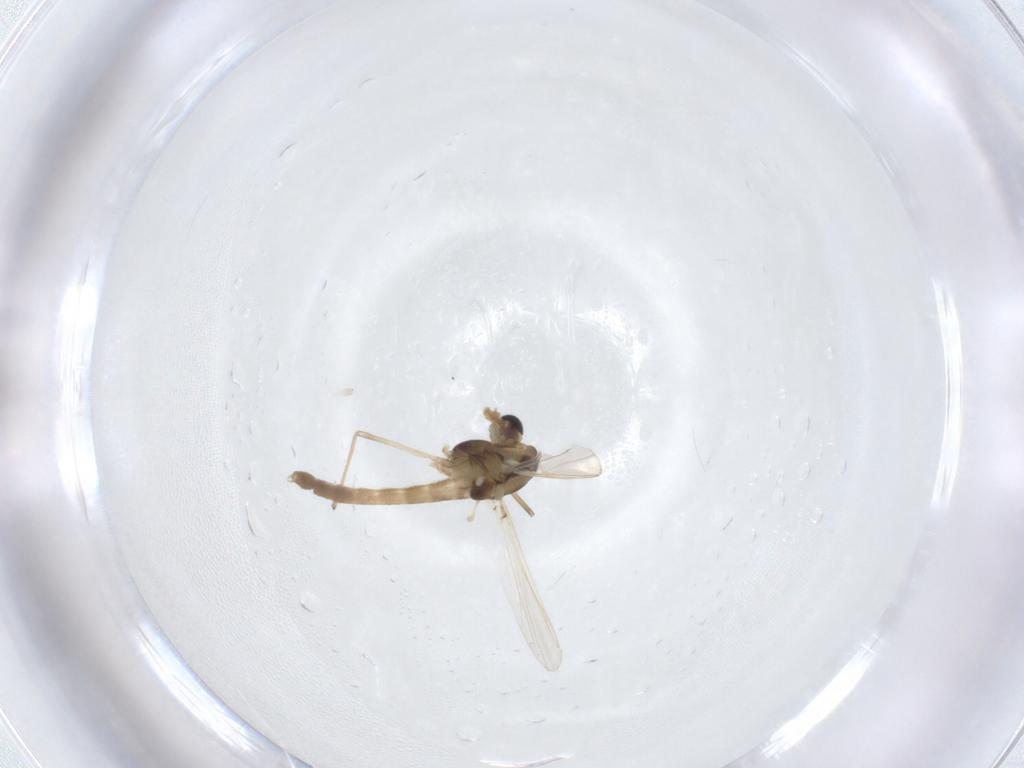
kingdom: Animalia
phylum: Arthropoda
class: Insecta
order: Diptera
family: Chironomidae
